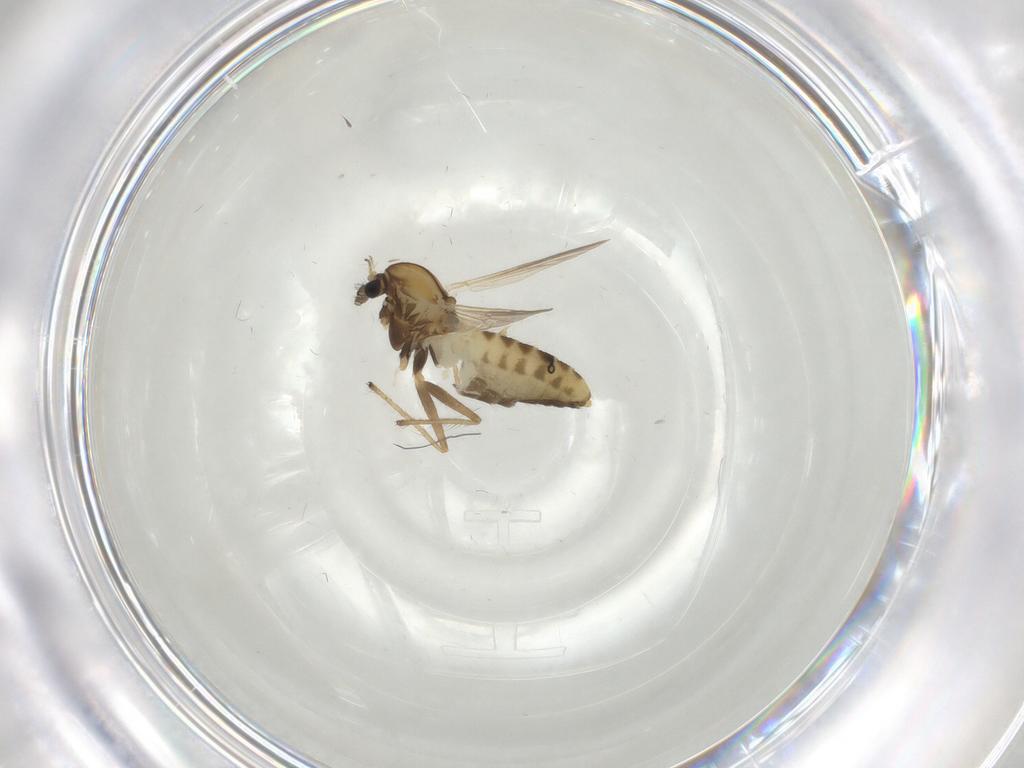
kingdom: Animalia
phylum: Arthropoda
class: Insecta
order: Diptera
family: Chironomidae
